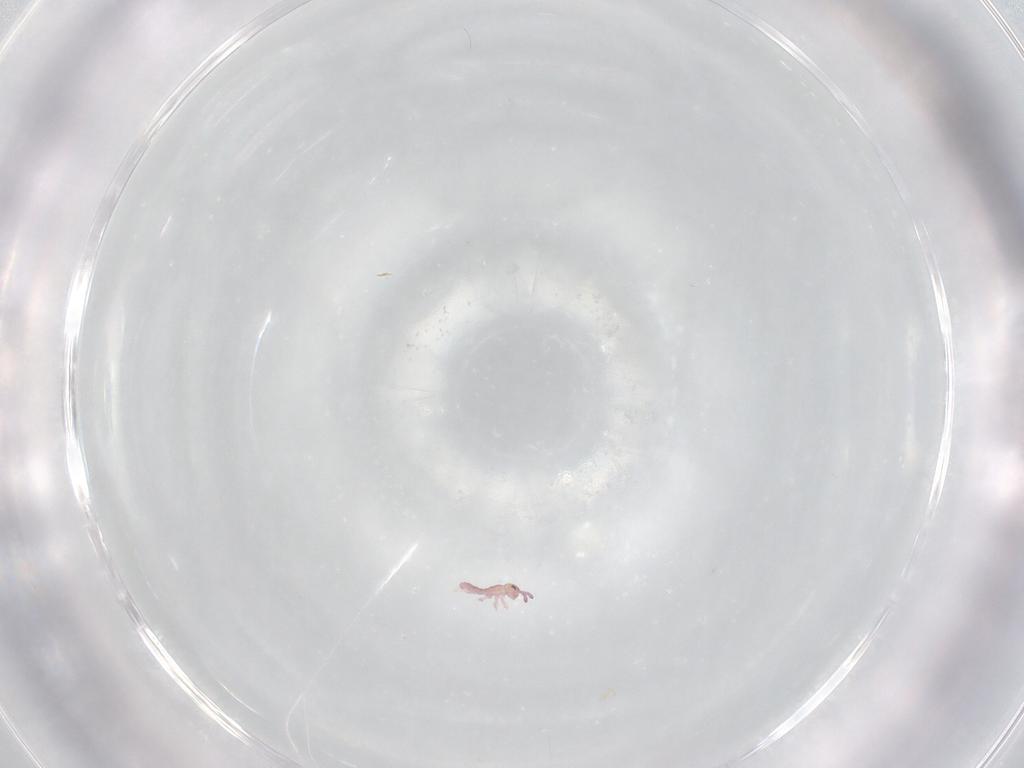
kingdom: Animalia
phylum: Arthropoda
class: Collembola
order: Entomobryomorpha
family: Isotomidae
